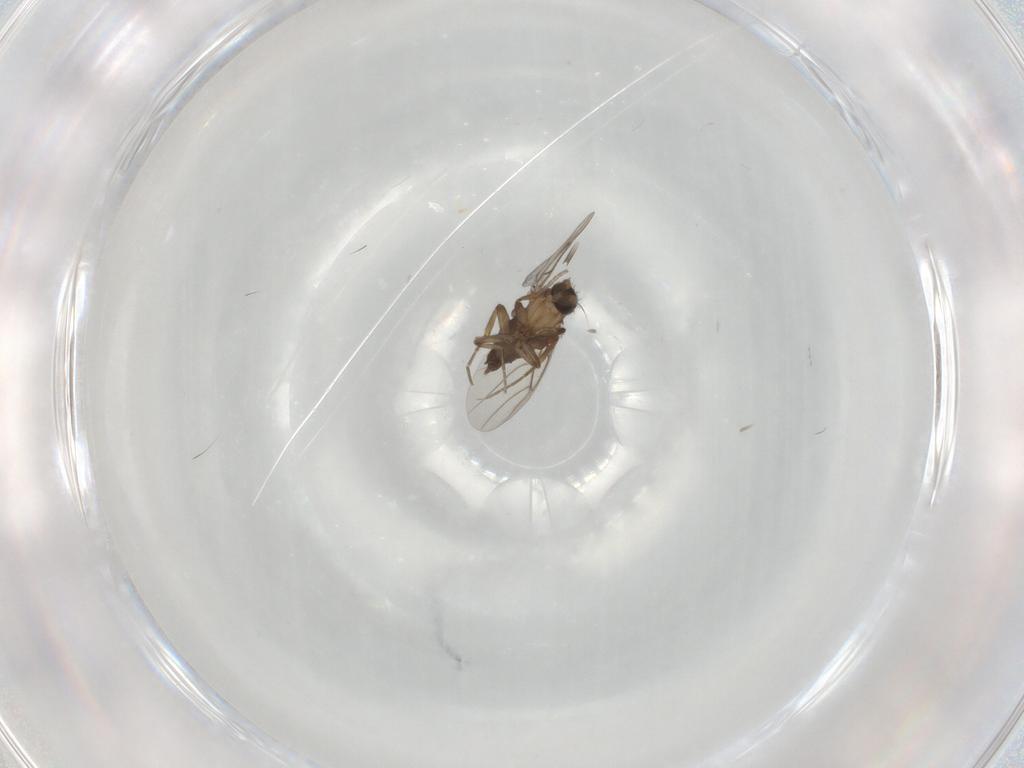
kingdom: Animalia
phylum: Arthropoda
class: Insecta
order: Diptera
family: Phoridae
